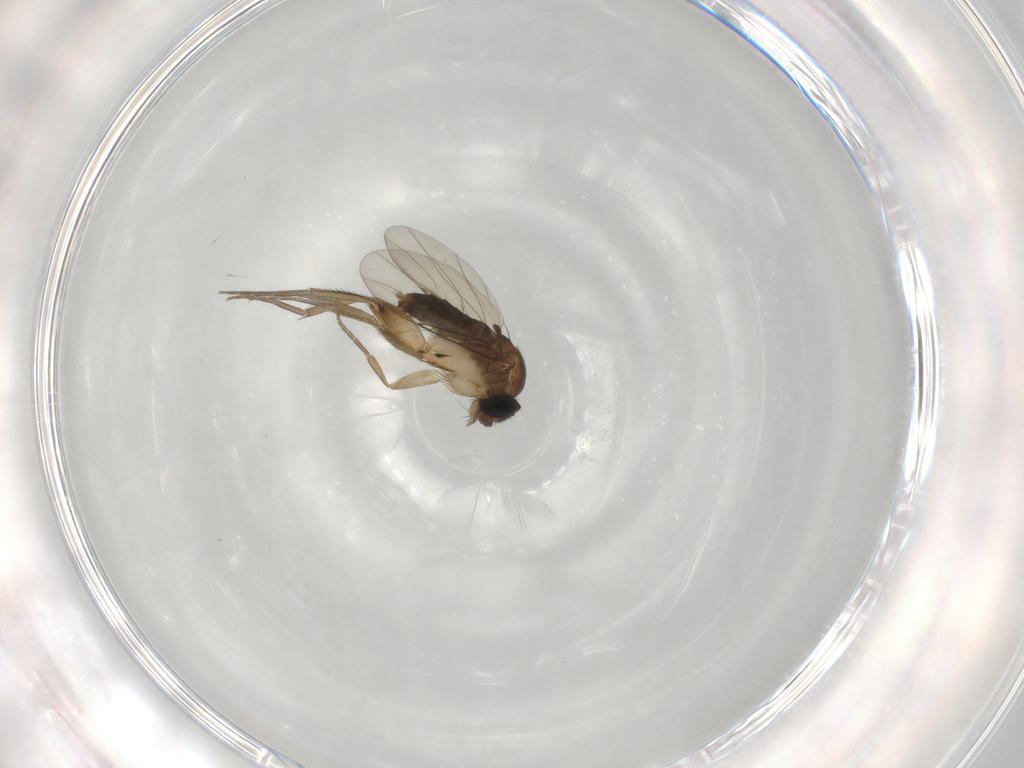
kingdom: Animalia
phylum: Arthropoda
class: Insecta
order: Diptera
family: Phoridae
